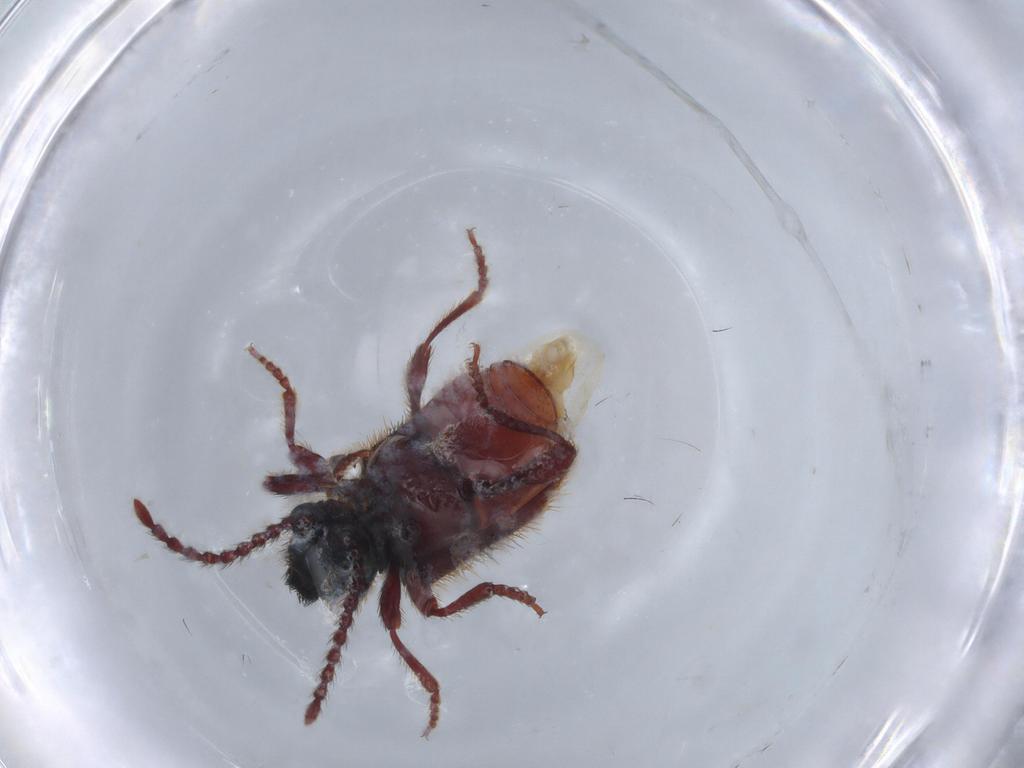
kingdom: Animalia
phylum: Arthropoda
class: Insecta
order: Coleoptera
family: Ptinidae
